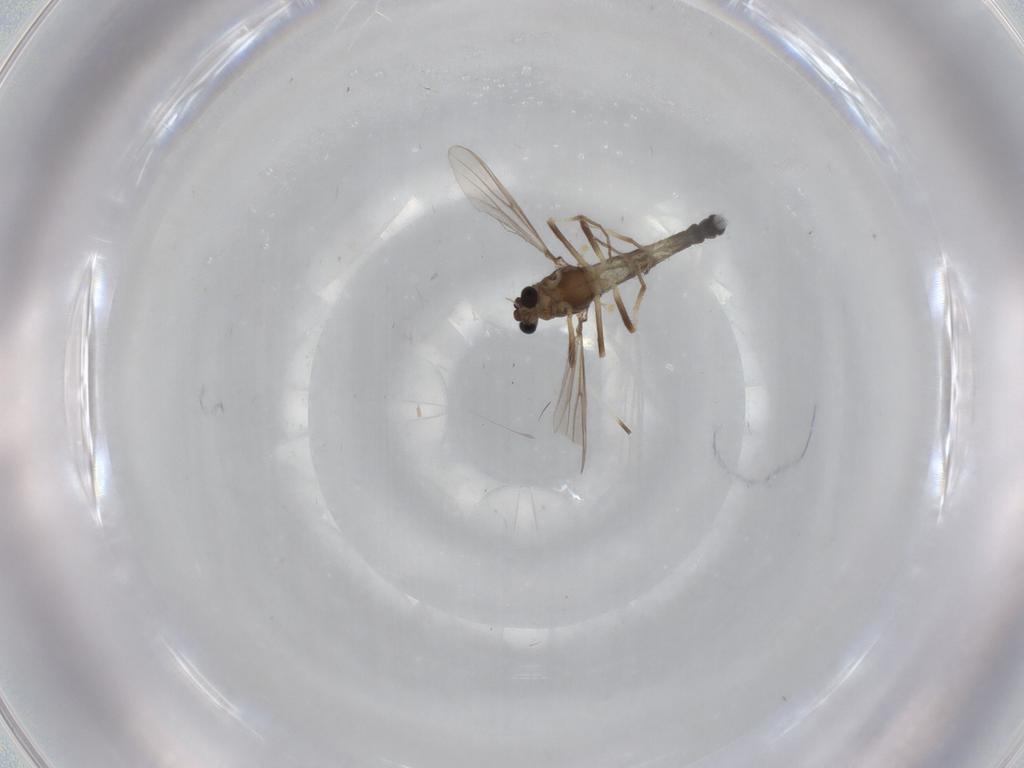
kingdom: Animalia
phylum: Arthropoda
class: Insecta
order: Diptera
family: Chironomidae
